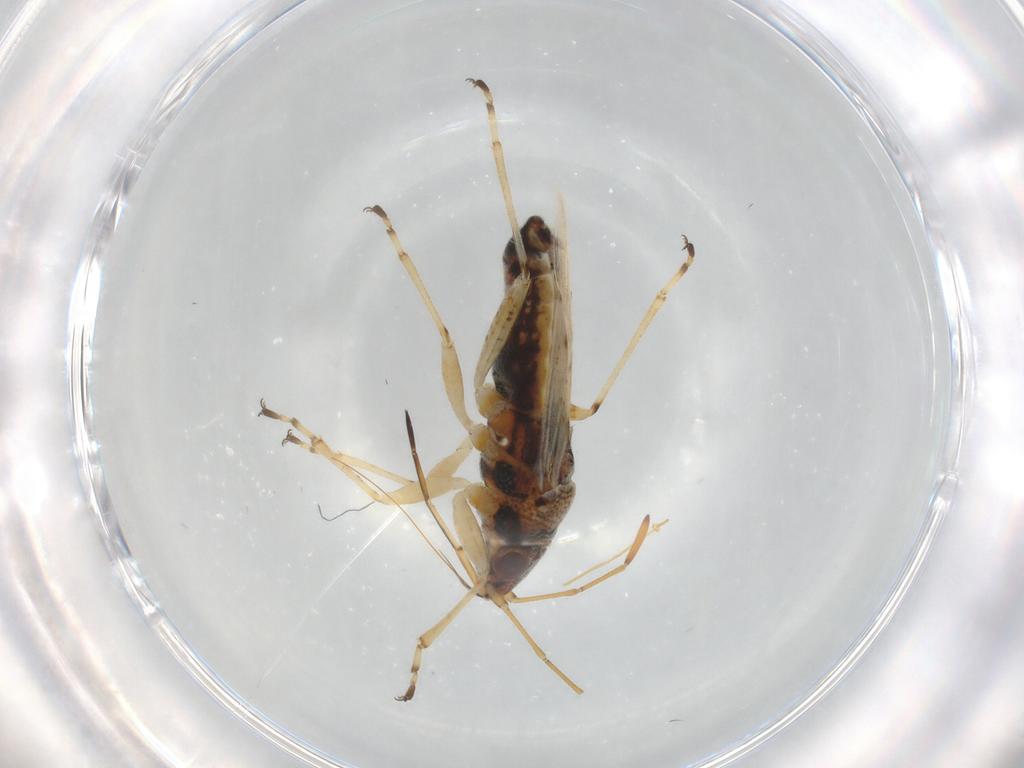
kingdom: Animalia
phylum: Arthropoda
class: Insecta
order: Hemiptera
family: Lygaeidae
